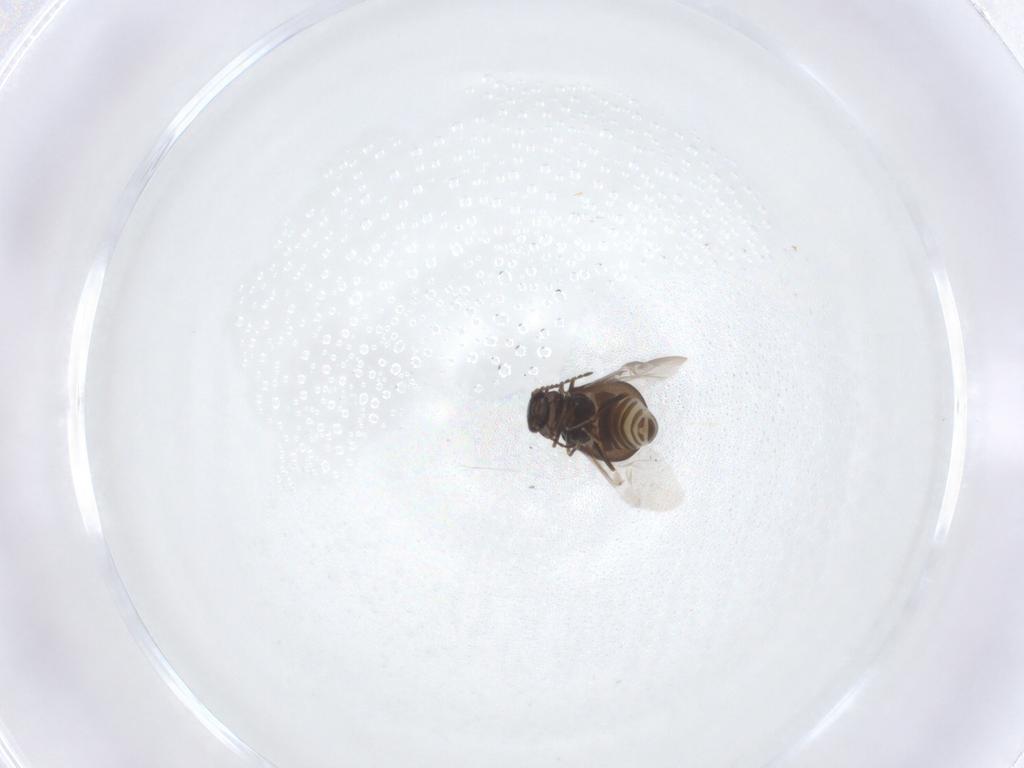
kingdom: Animalia
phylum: Arthropoda
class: Insecta
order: Coleoptera
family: Melyridae
